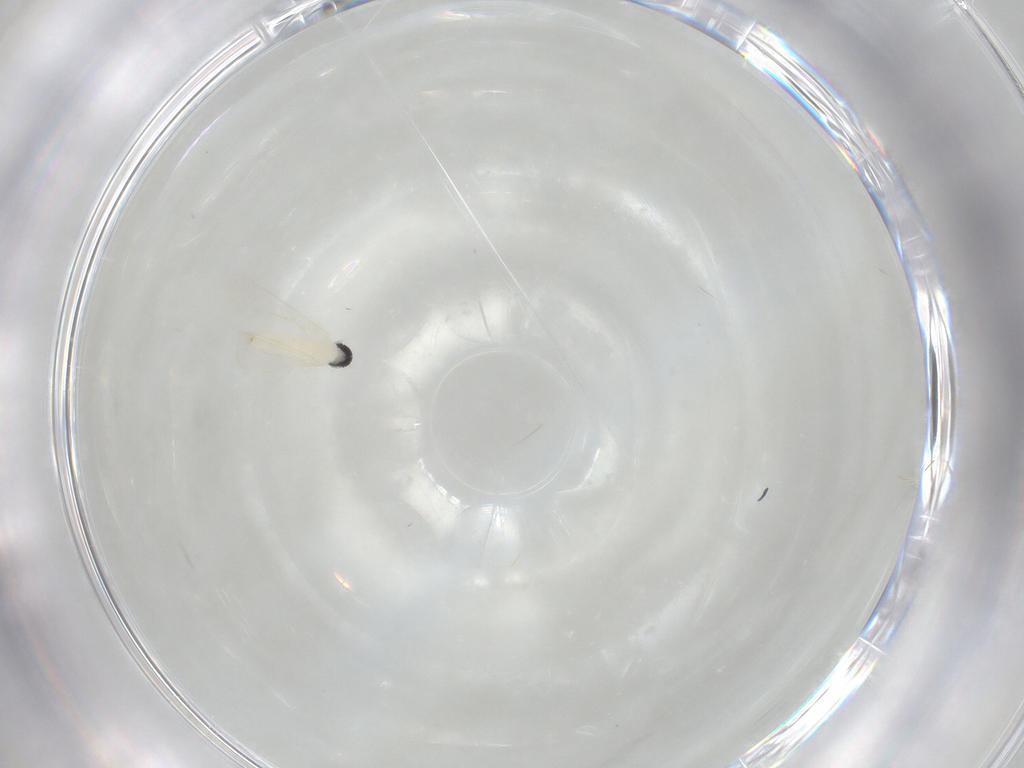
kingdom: Animalia
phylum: Arthropoda
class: Insecta
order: Diptera
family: Cecidomyiidae
